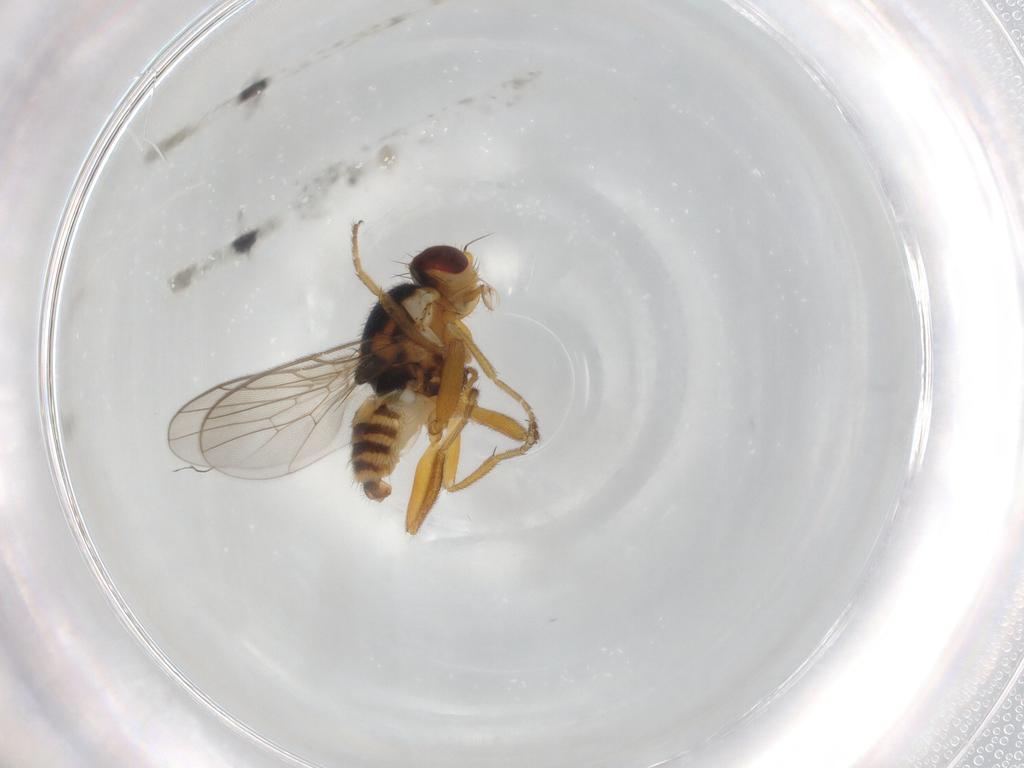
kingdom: Animalia
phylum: Arthropoda
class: Insecta
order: Diptera
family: Chloropidae
